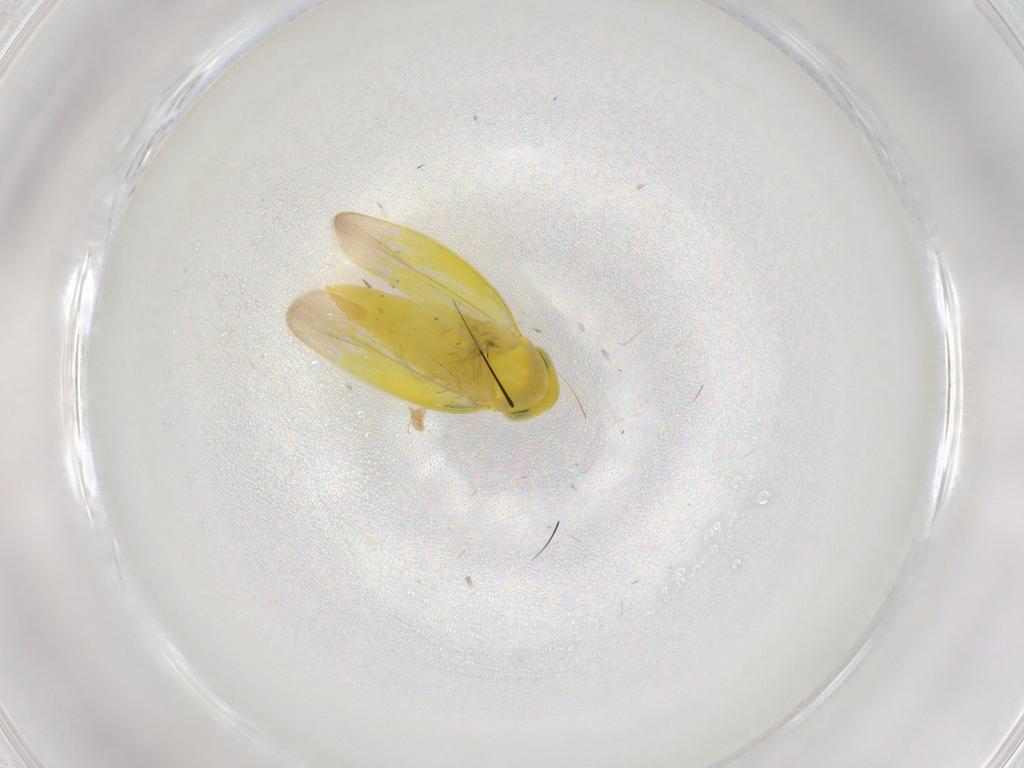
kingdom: Animalia
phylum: Arthropoda
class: Insecta
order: Hemiptera
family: Cicadellidae
